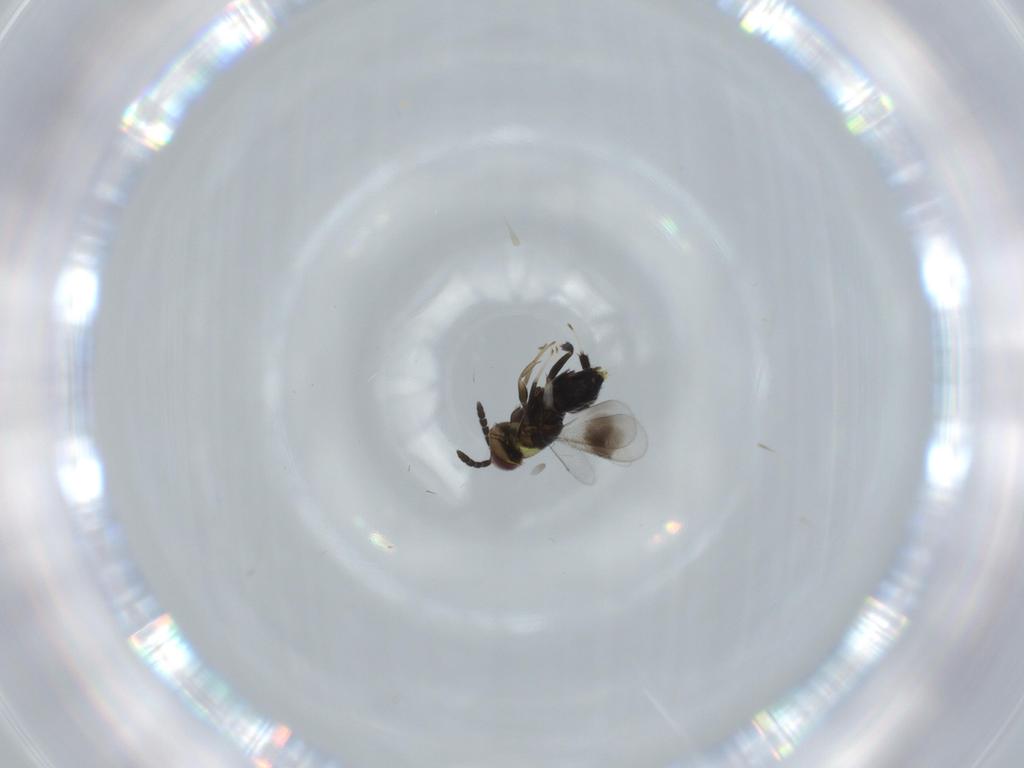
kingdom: Animalia
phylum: Arthropoda
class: Insecta
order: Hymenoptera
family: Aphelinidae
